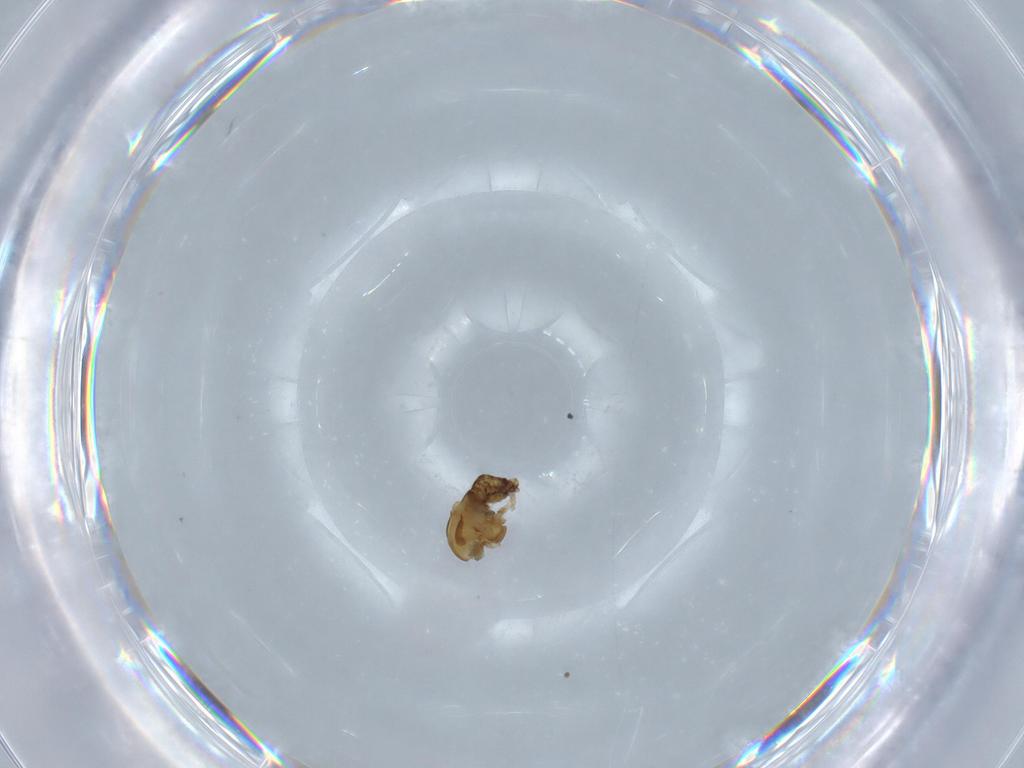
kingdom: Animalia
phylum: Arthropoda
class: Insecta
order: Diptera
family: Chironomidae
